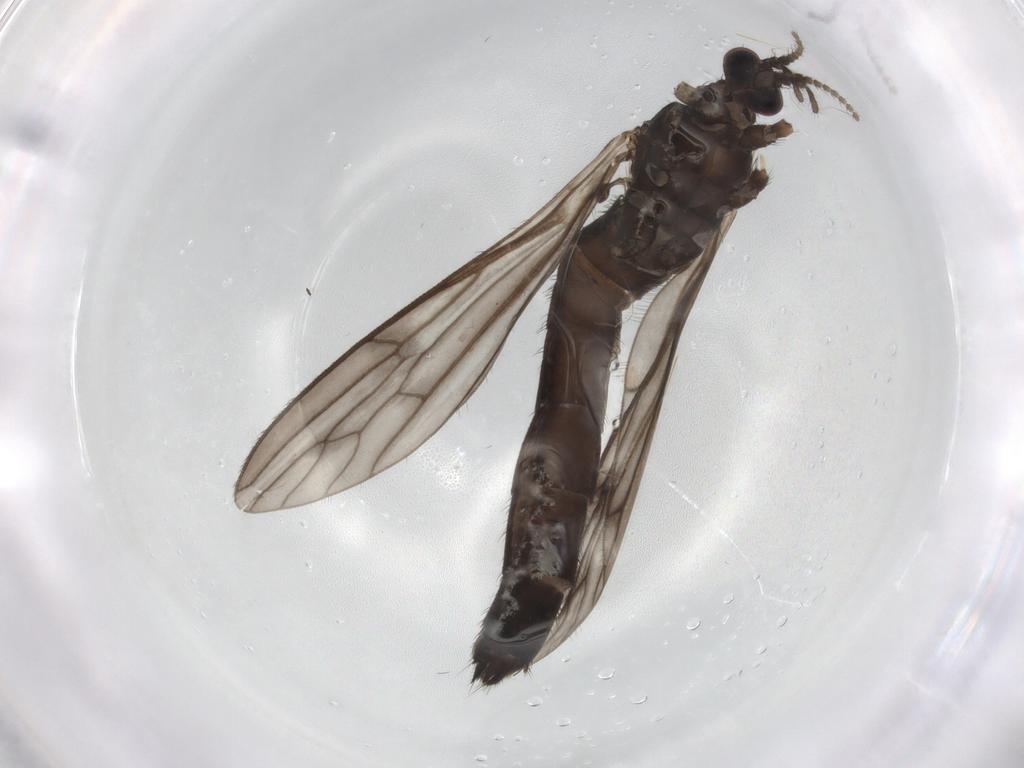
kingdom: Animalia
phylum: Arthropoda
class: Insecta
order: Diptera
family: Limoniidae
